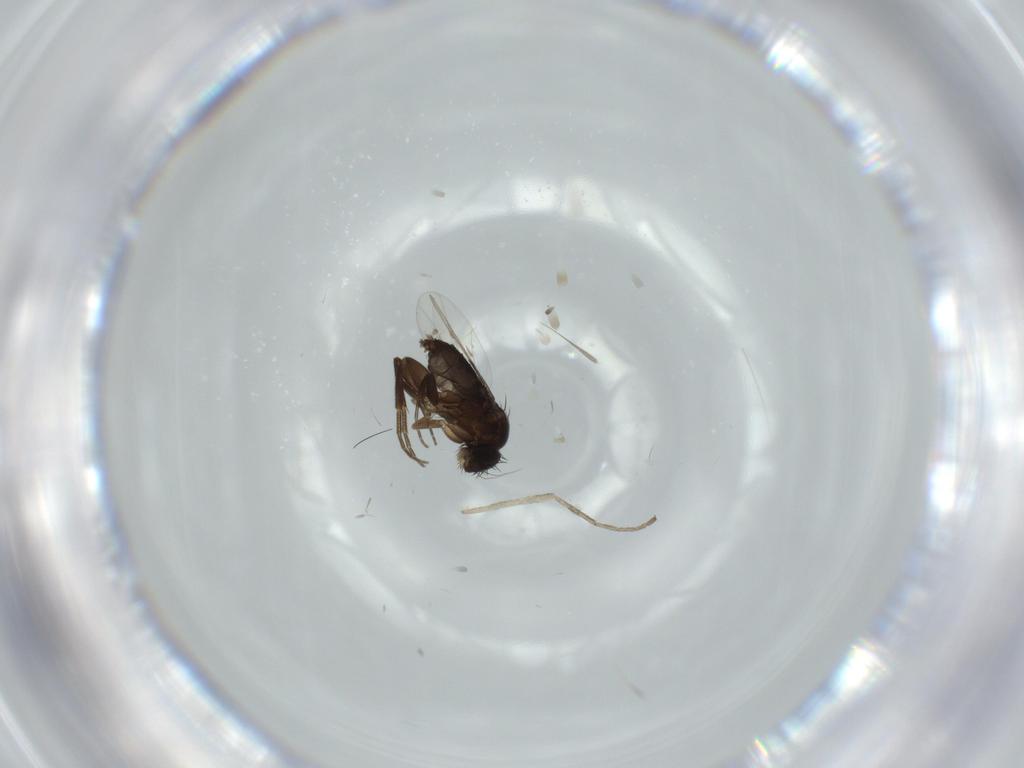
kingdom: Animalia
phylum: Arthropoda
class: Insecta
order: Diptera
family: Phoridae
